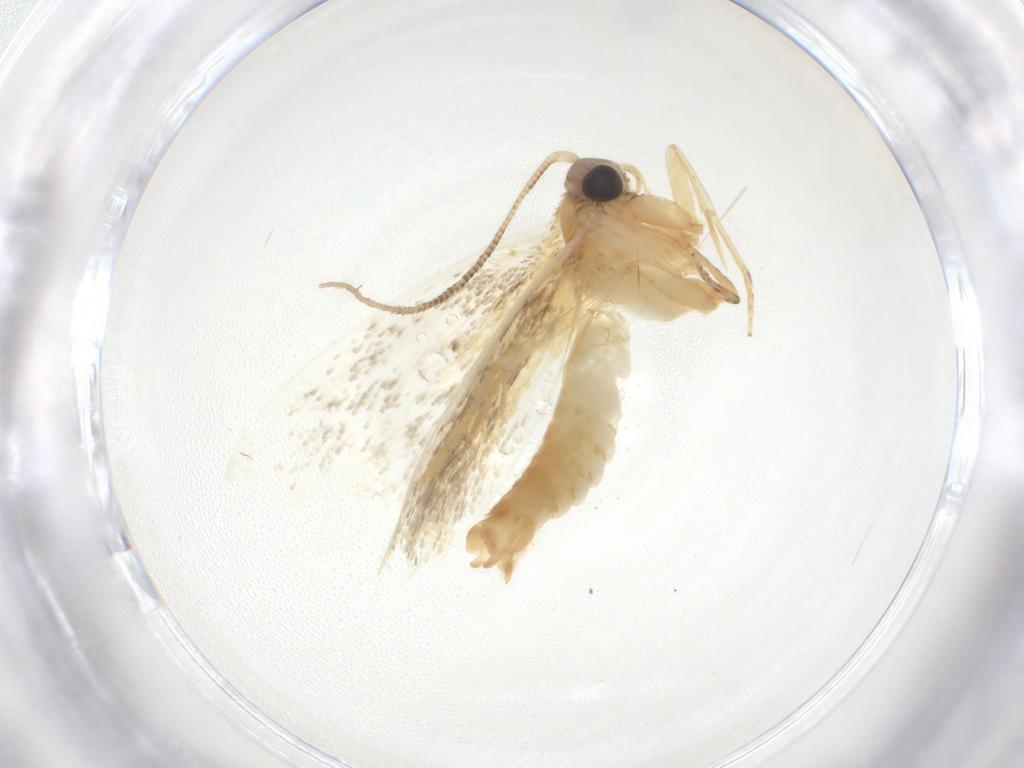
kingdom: Animalia
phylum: Arthropoda
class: Insecta
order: Lepidoptera
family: Tineidae
